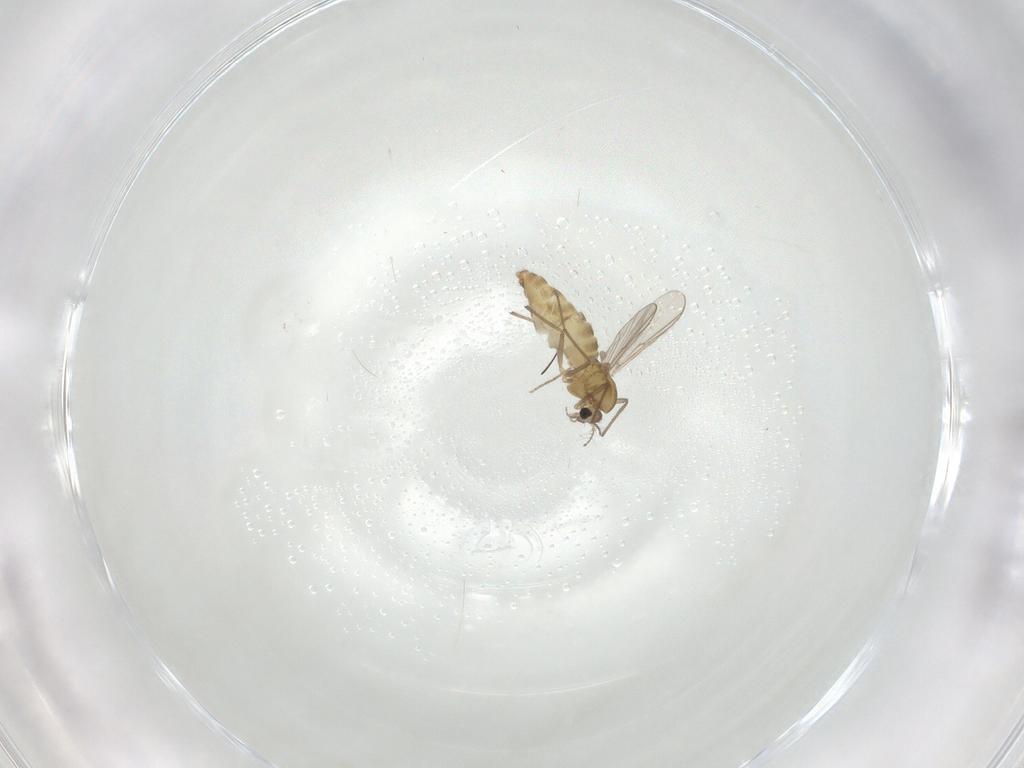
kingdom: Animalia
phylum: Arthropoda
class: Insecta
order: Diptera
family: Chironomidae
